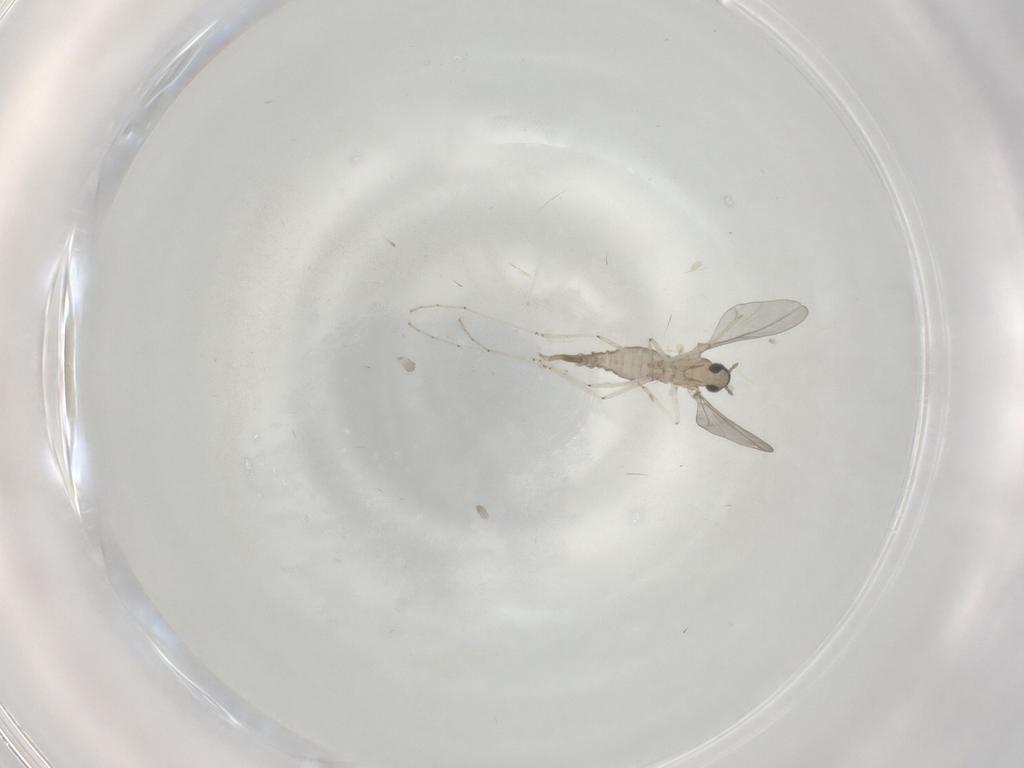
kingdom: Animalia
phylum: Arthropoda
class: Insecta
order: Diptera
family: Cecidomyiidae
